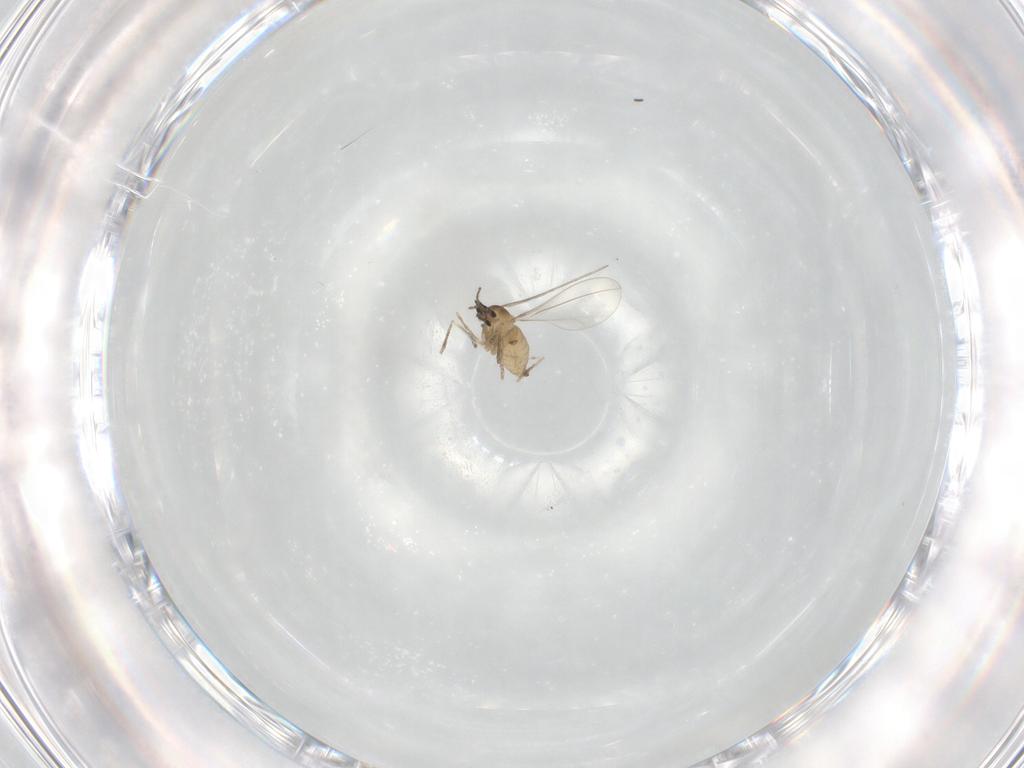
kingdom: Animalia
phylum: Arthropoda
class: Insecta
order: Diptera
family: Cecidomyiidae
